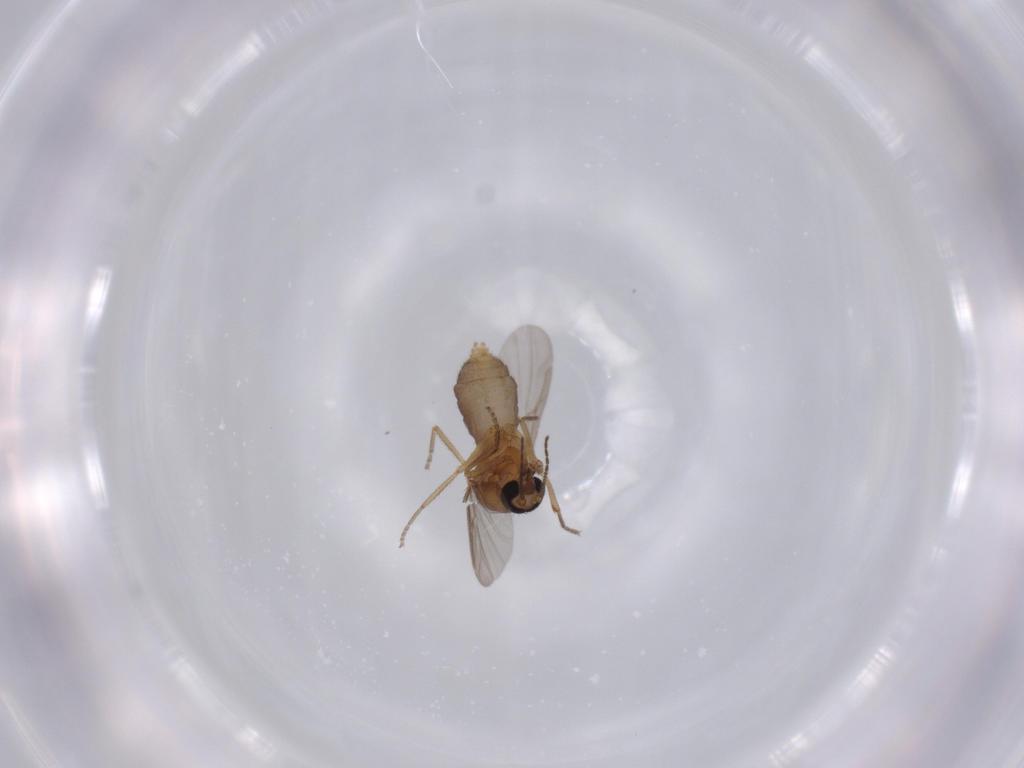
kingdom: Animalia
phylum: Arthropoda
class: Insecta
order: Diptera
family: Ceratopogonidae
